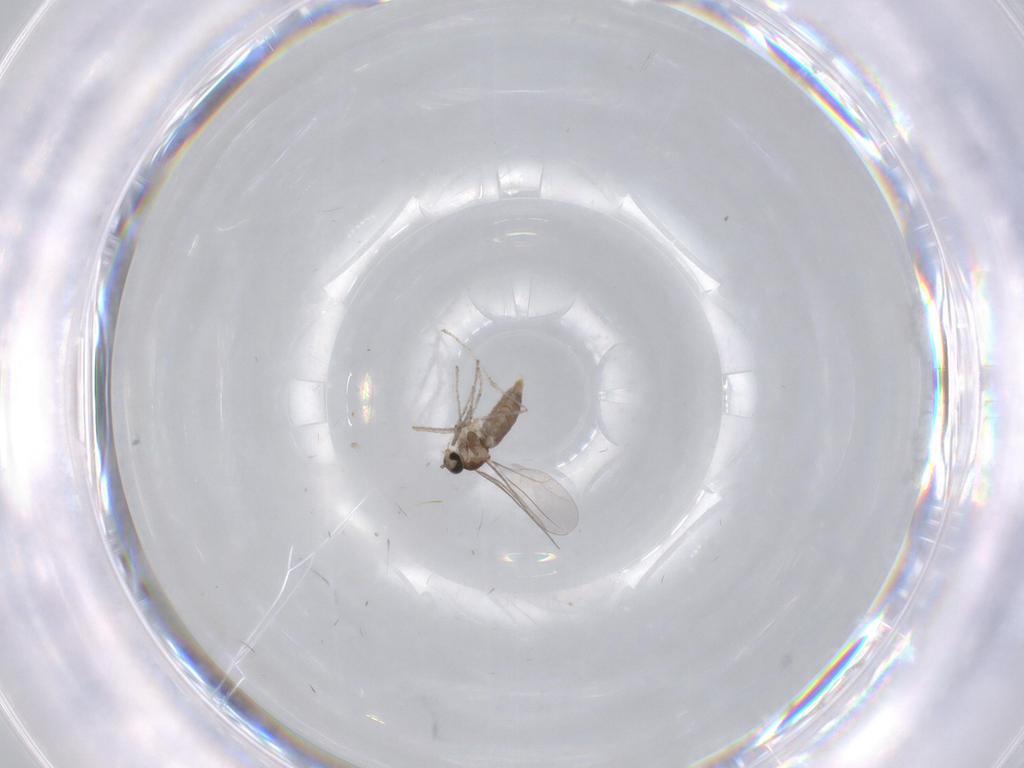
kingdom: Animalia
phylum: Arthropoda
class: Insecta
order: Diptera
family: Cecidomyiidae
